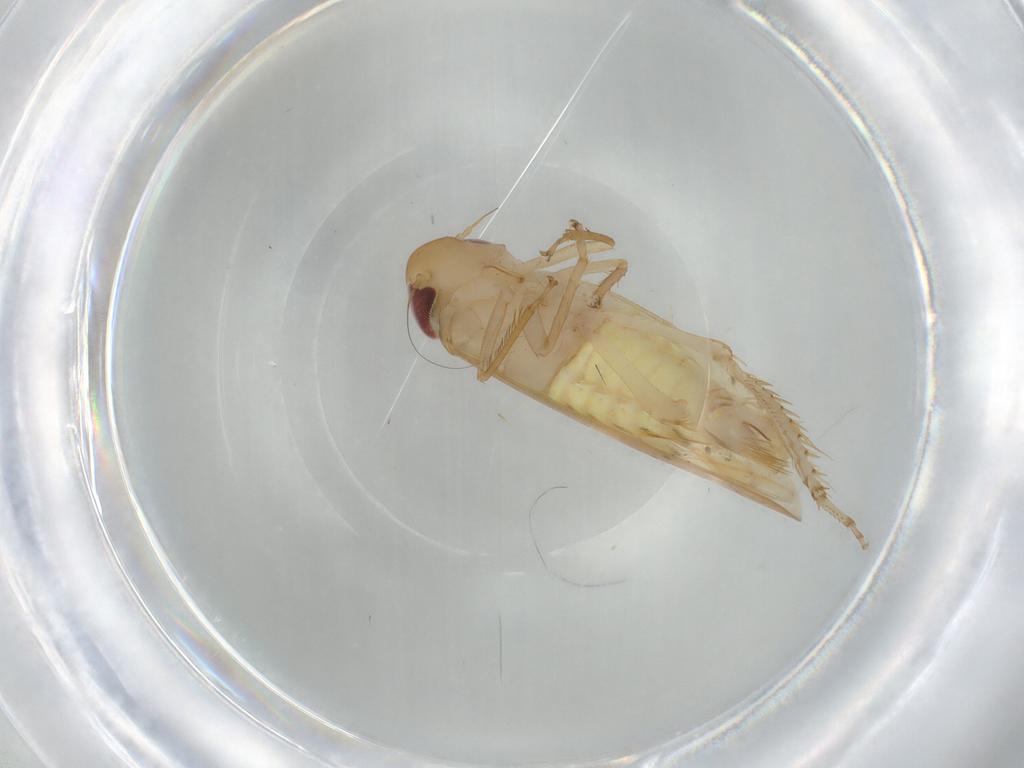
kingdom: Animalia
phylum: Arthropoda
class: Insecta
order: Hemiptera
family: Cicadellidae
